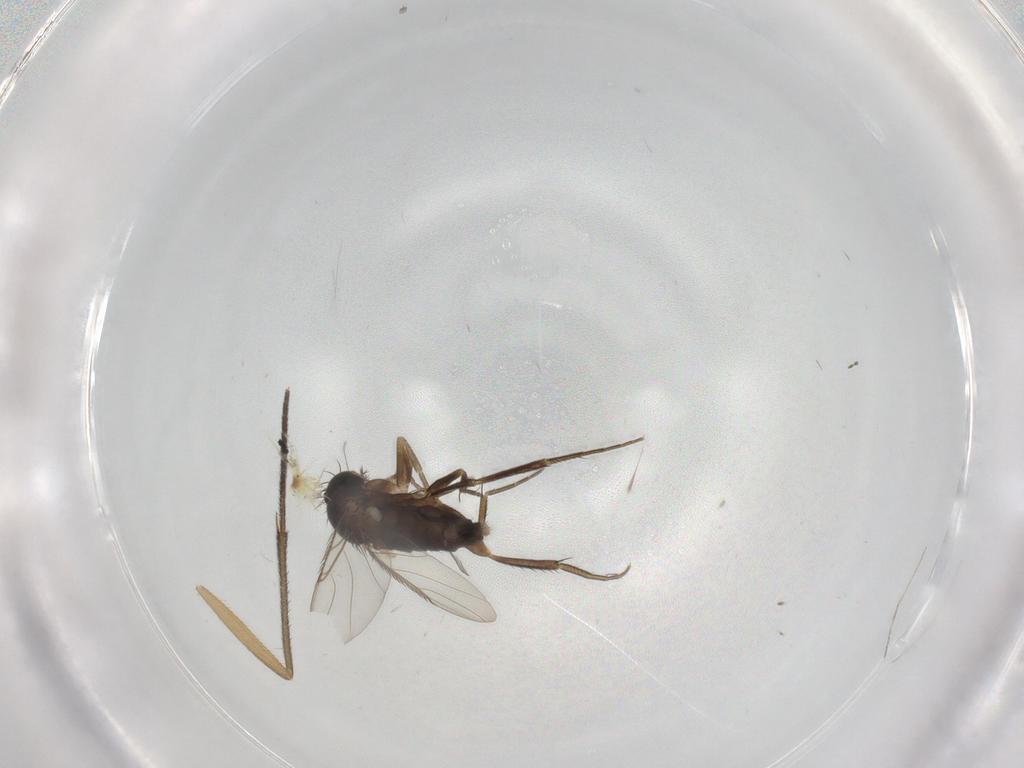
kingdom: Animalia
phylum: Arthropoda
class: Insecta
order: Diptera
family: Phoridae
